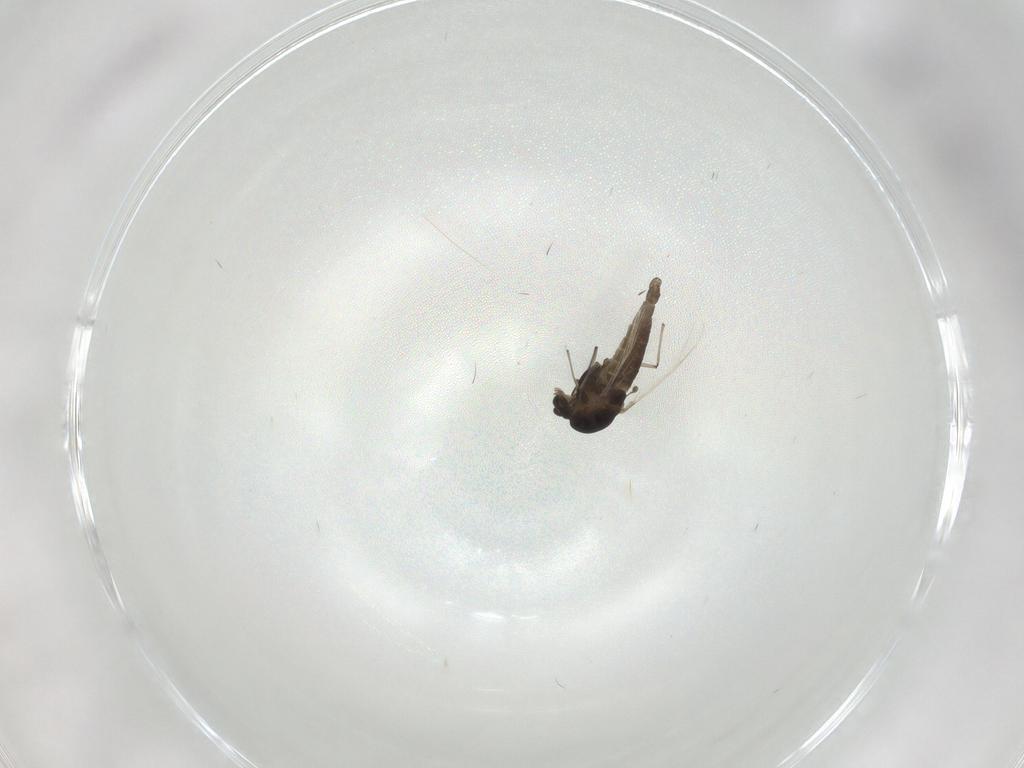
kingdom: Animalia
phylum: Arthropoda
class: Insecta
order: Diptera
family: Chironomidae
